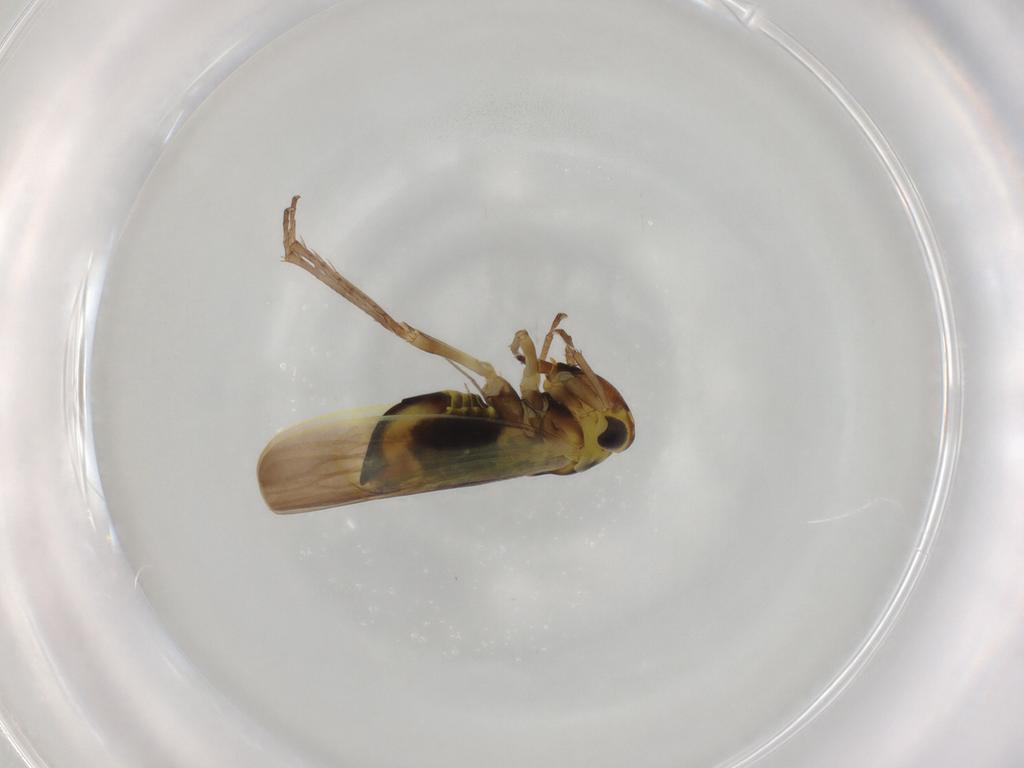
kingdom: Animalia
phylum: Arthropoda
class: Insecta
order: Hemiptera
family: Cicadellidae
